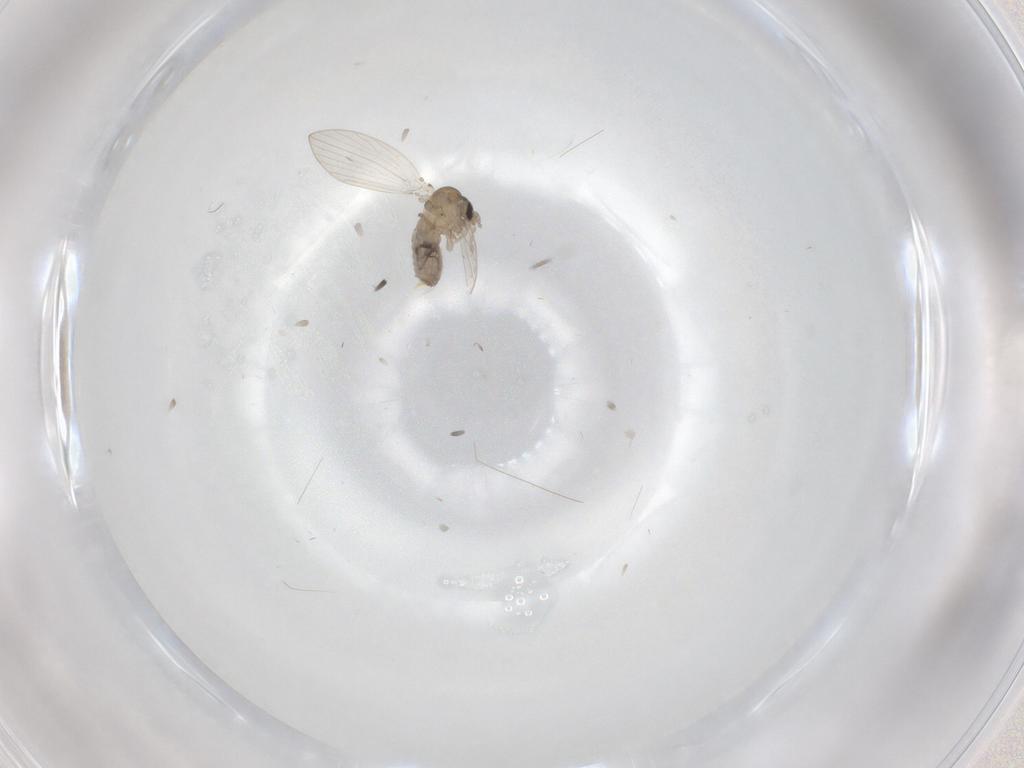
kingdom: Animalia
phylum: Arthropoda
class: Insecta
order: Diptera
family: Psychodidae
